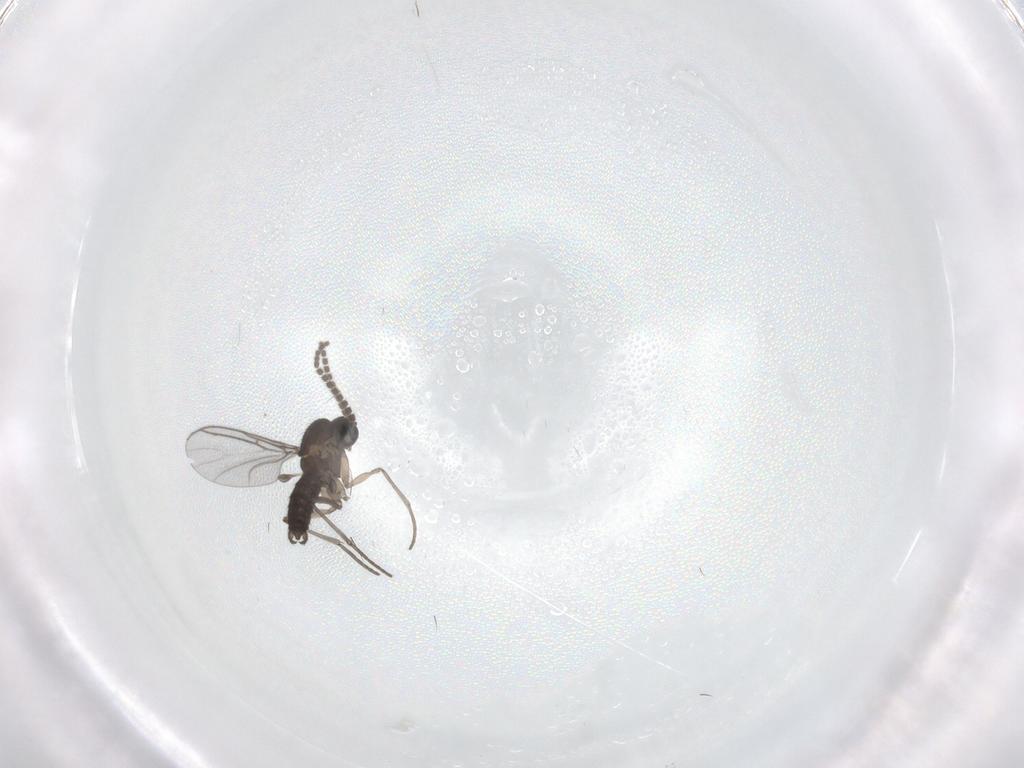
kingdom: Animalia
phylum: Arthropoda
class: Insecta
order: Diptera
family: Sciaridae
